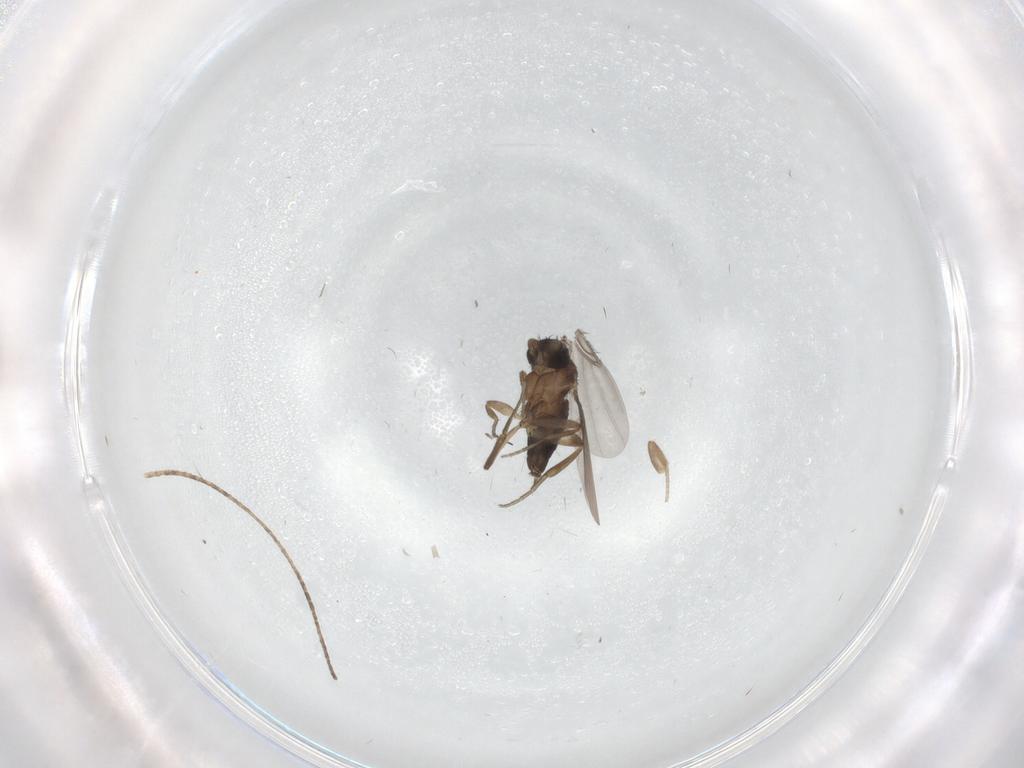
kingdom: Animalia
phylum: Arthropoda
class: Insecta
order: Diptera
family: Phoridae
